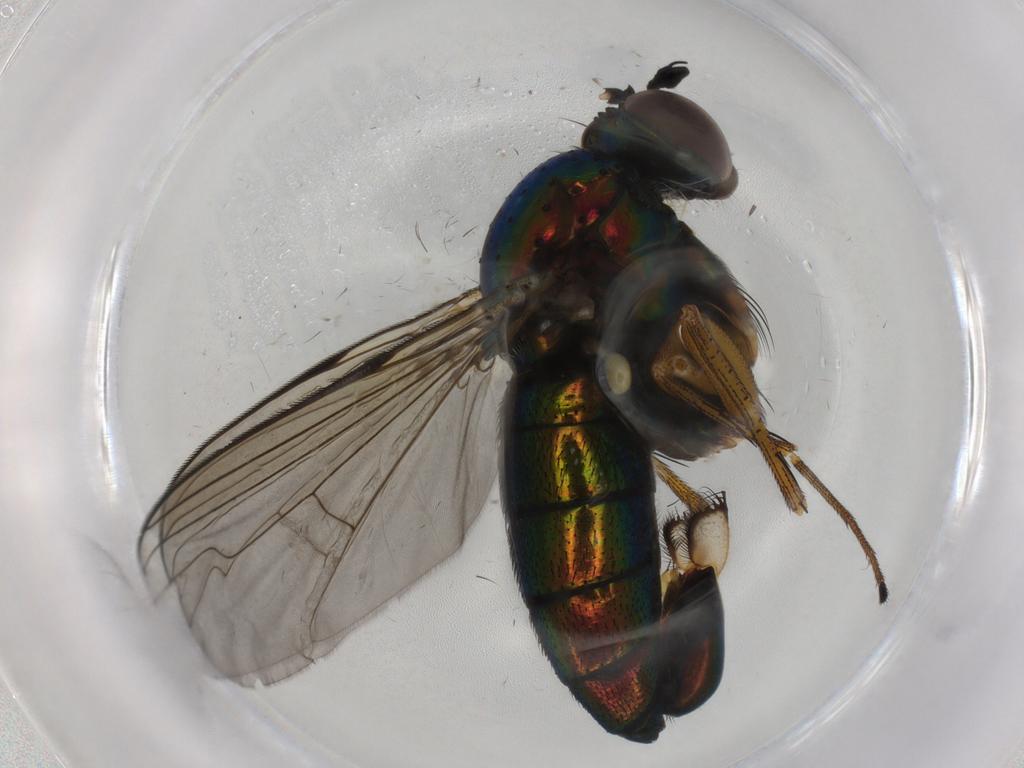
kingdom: Animalia
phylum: Arthropoda
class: Insecta
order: Diptera
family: Dolichopodidae
